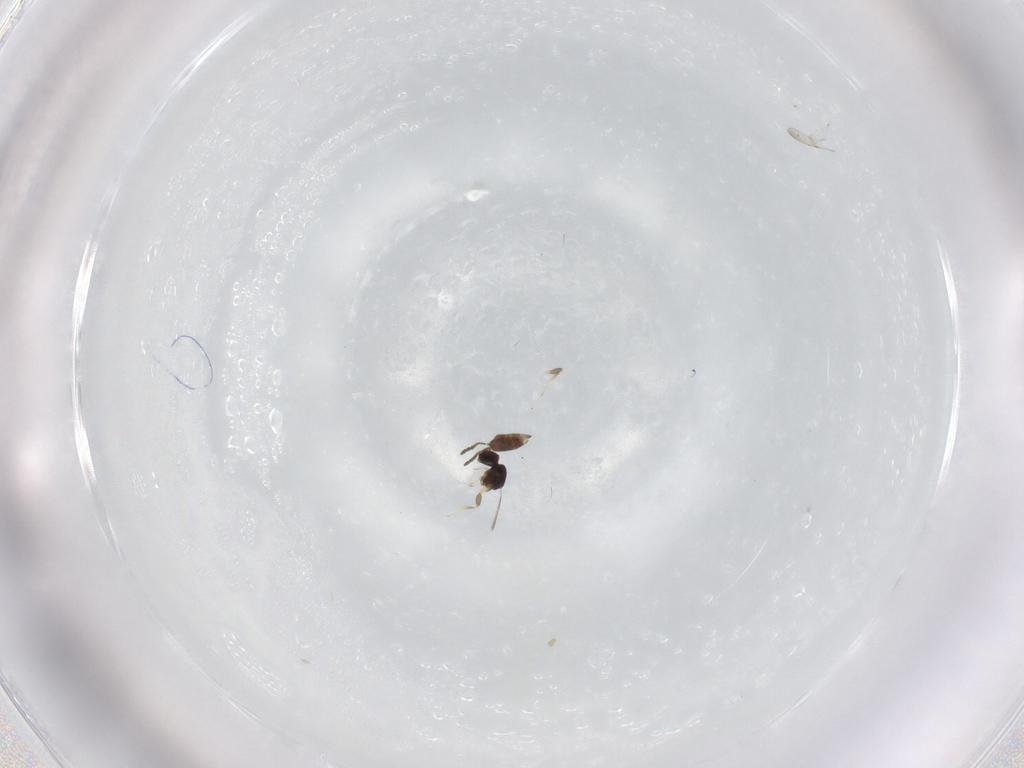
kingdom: Animalia
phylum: Arthropoda
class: Insecta
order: Hymenoptera
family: Azotidae
